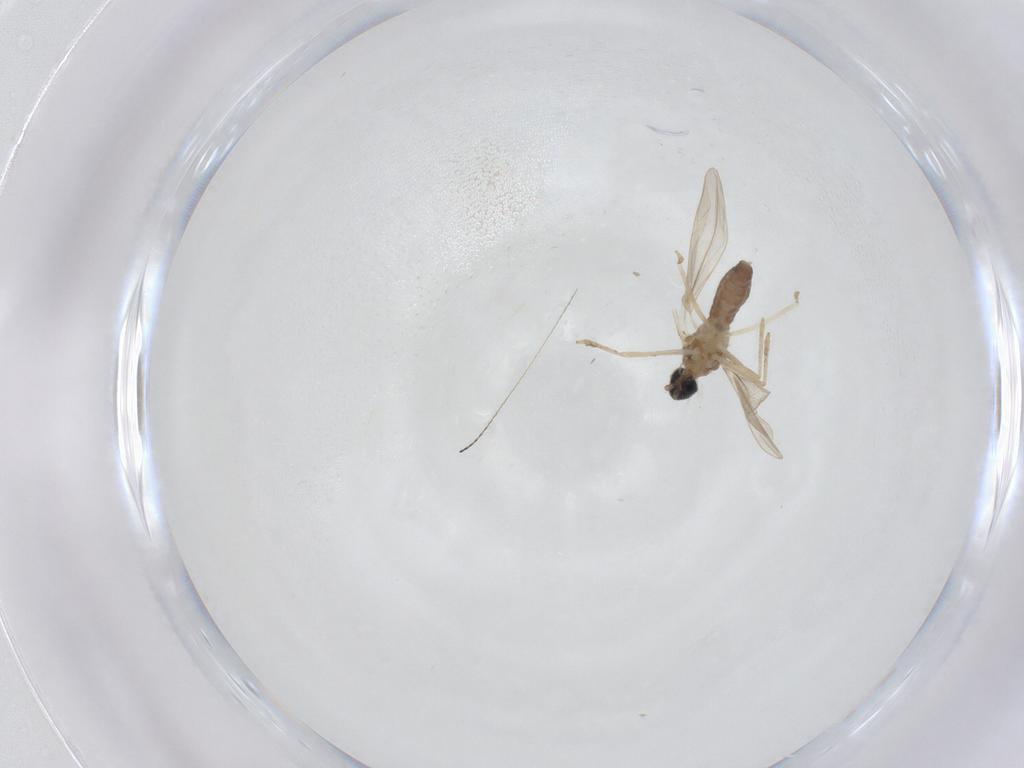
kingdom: Animalia
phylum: Arthropoda
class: Insecta
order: Diptera
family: Cecidomyiidae
